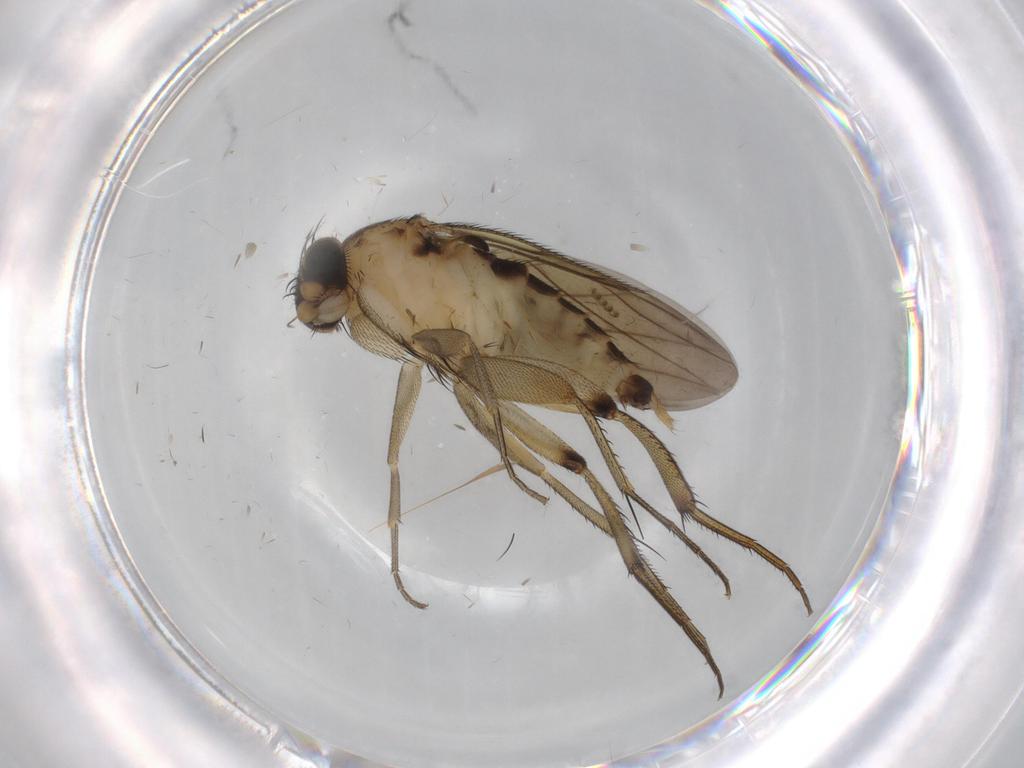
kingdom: Animalia
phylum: Arthropoda
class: Insecta
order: Diptera
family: Phoridae
